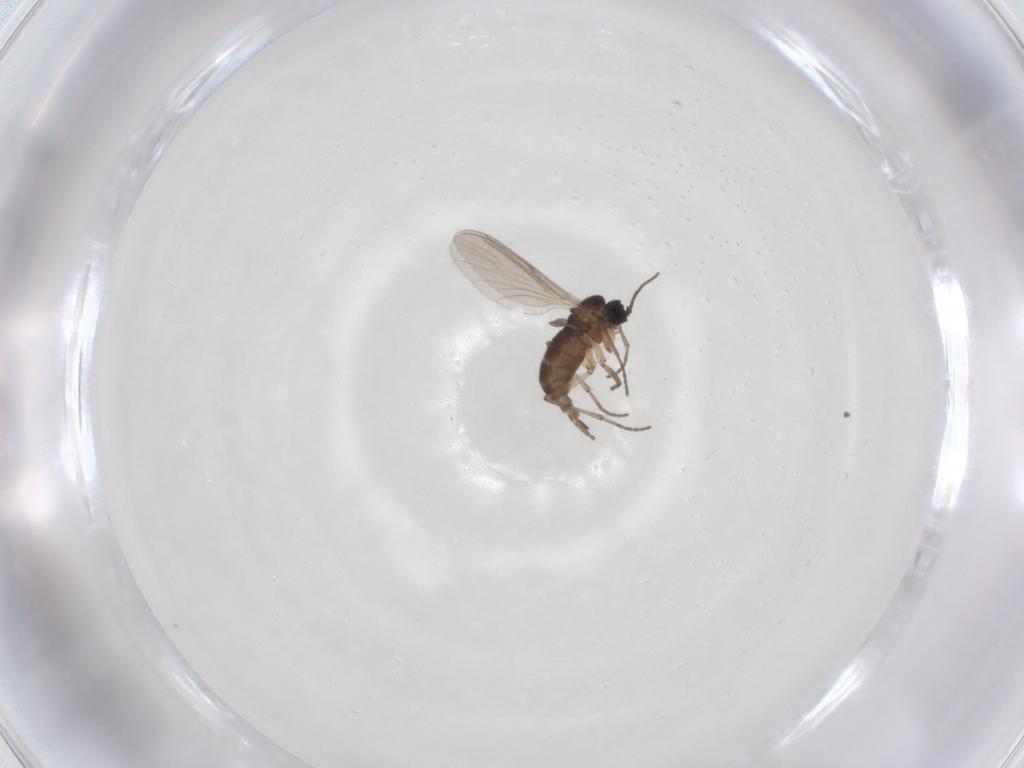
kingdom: Animalia
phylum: Arthropoda
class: Insecta
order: Diptera
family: Sciaridae
